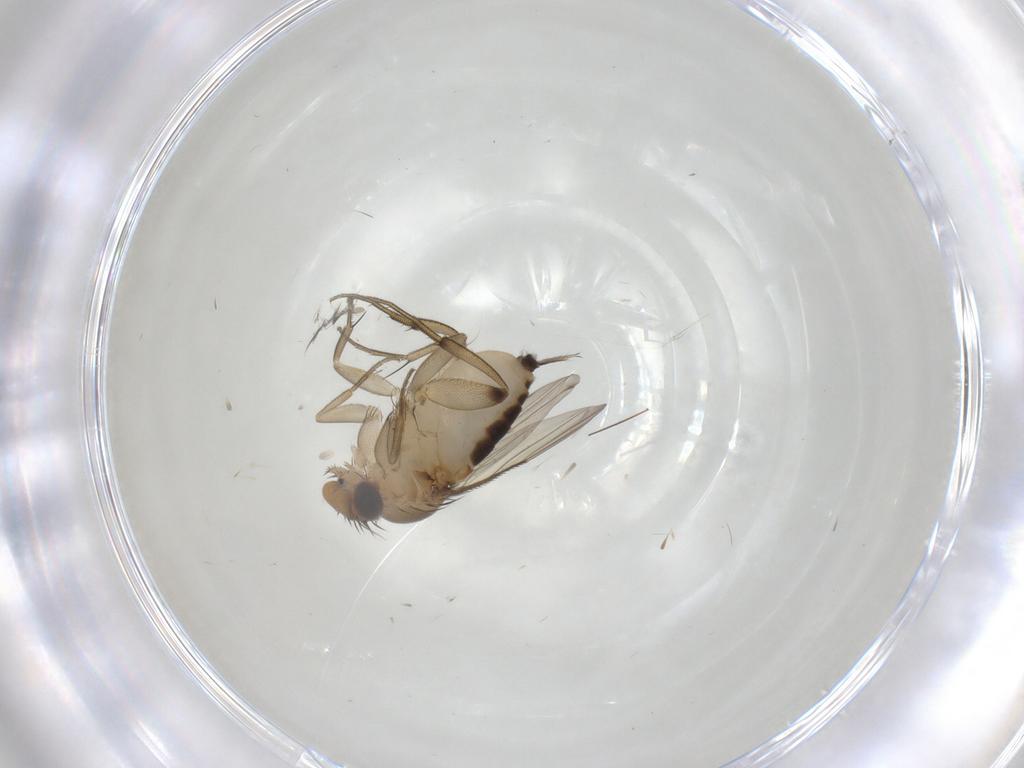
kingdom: Animalia
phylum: Arthropoda
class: Insecta
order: Diptera
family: Phoridae
